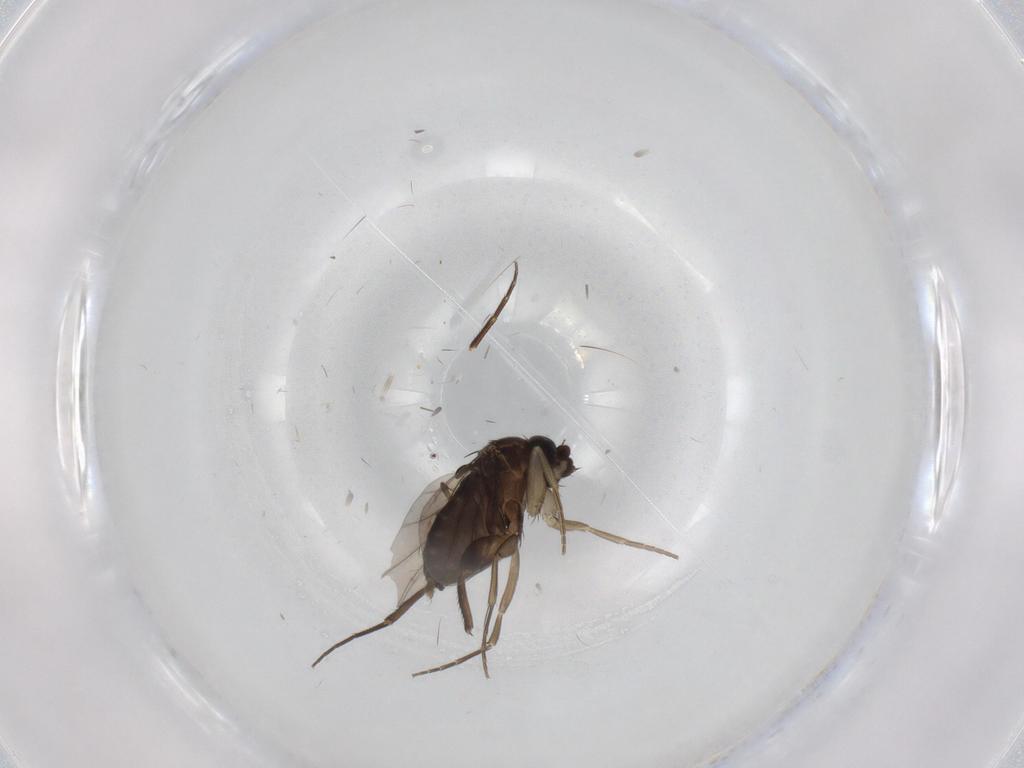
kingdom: Animalia
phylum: Arthropoda
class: Insecta
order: Diptera
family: Phoridae
